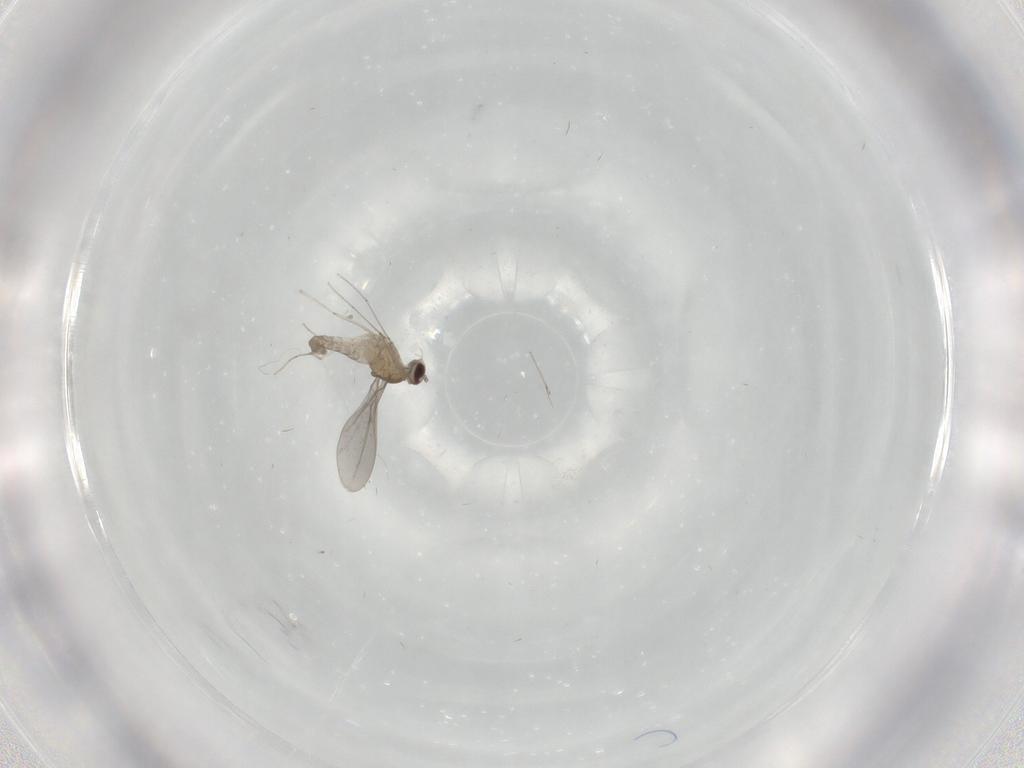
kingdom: Animalia
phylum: Arthropoda
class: Insecta
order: Diptera
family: Cecidomyiidae
